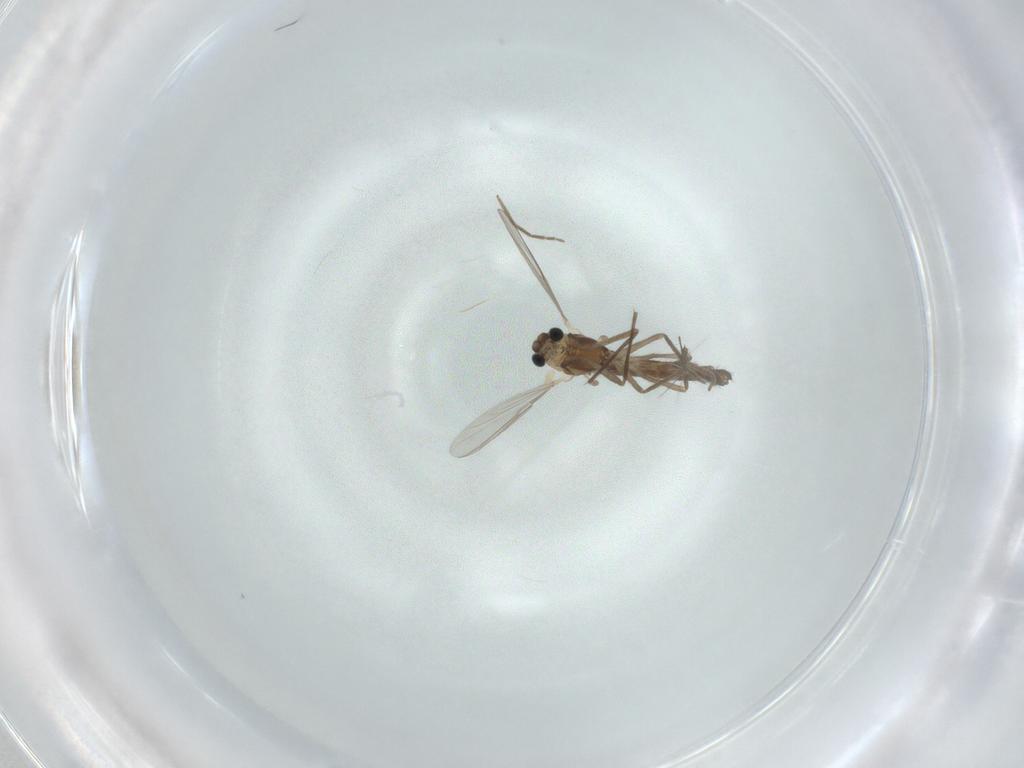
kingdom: Animalia
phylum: Arthropoda
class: Insecta
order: Diptera
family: Chironomidae
